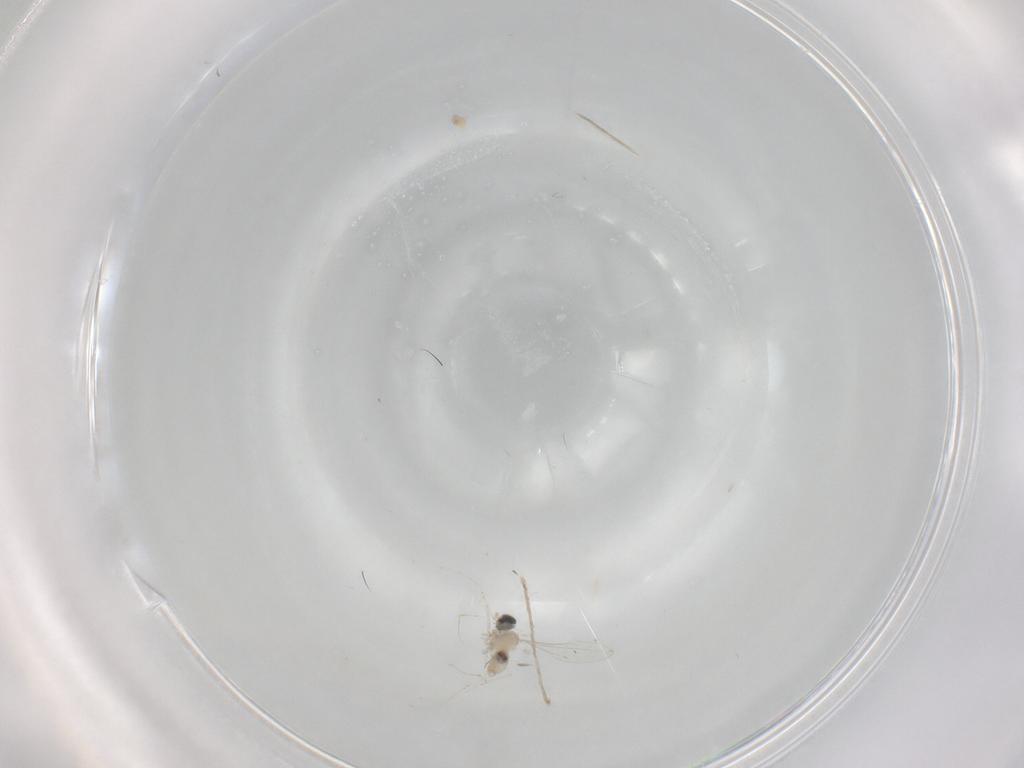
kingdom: Animalia
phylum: Arthropoda
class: Insecta
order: Diptera
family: Cecidomyiidae
